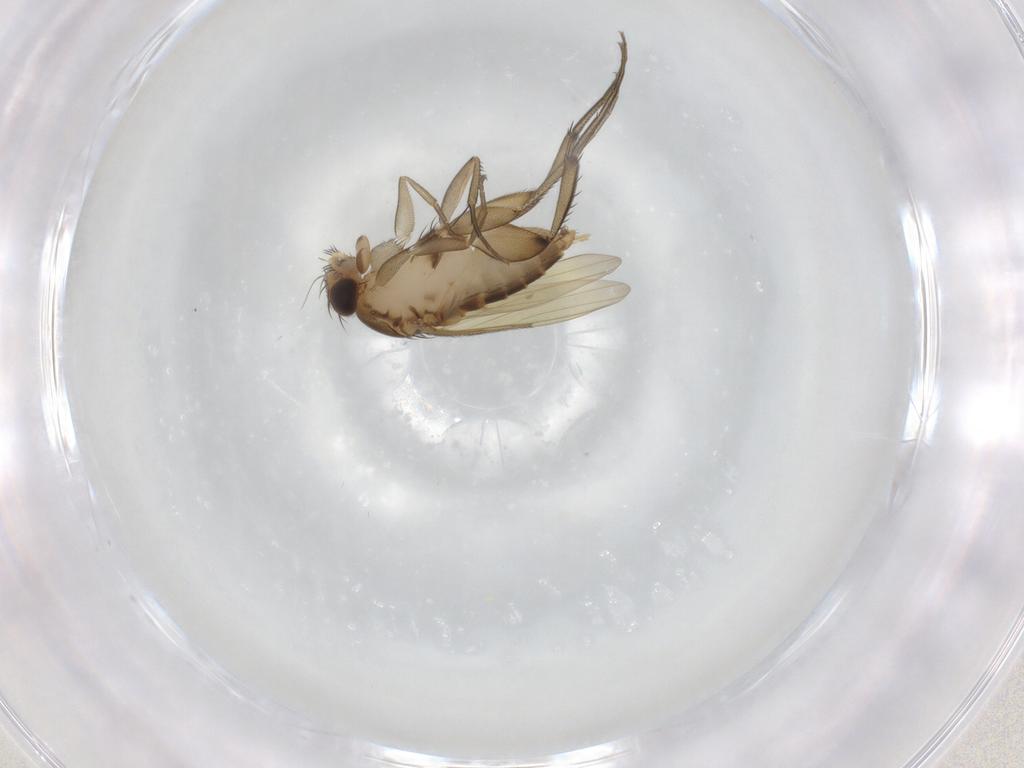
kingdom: Animalia
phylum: Arthropoda
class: Insecta
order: Diptera
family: Phoridae
